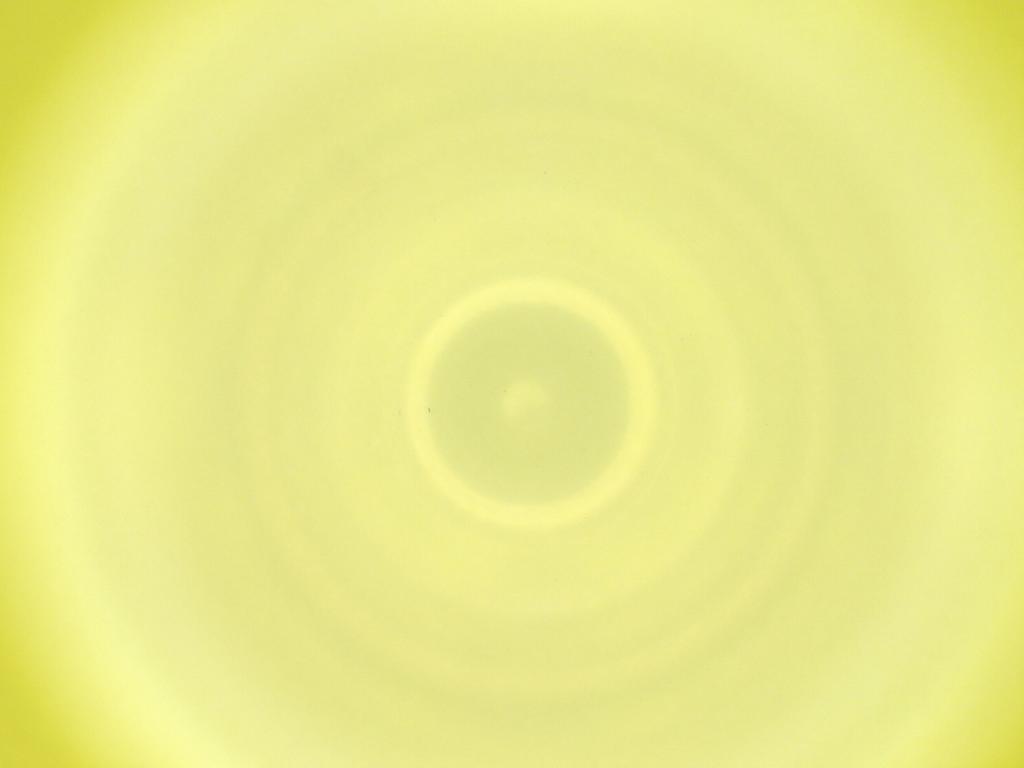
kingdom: Animalia
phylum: Arthropoda
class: Insecta
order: Diptera
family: Cecidomyiidae
